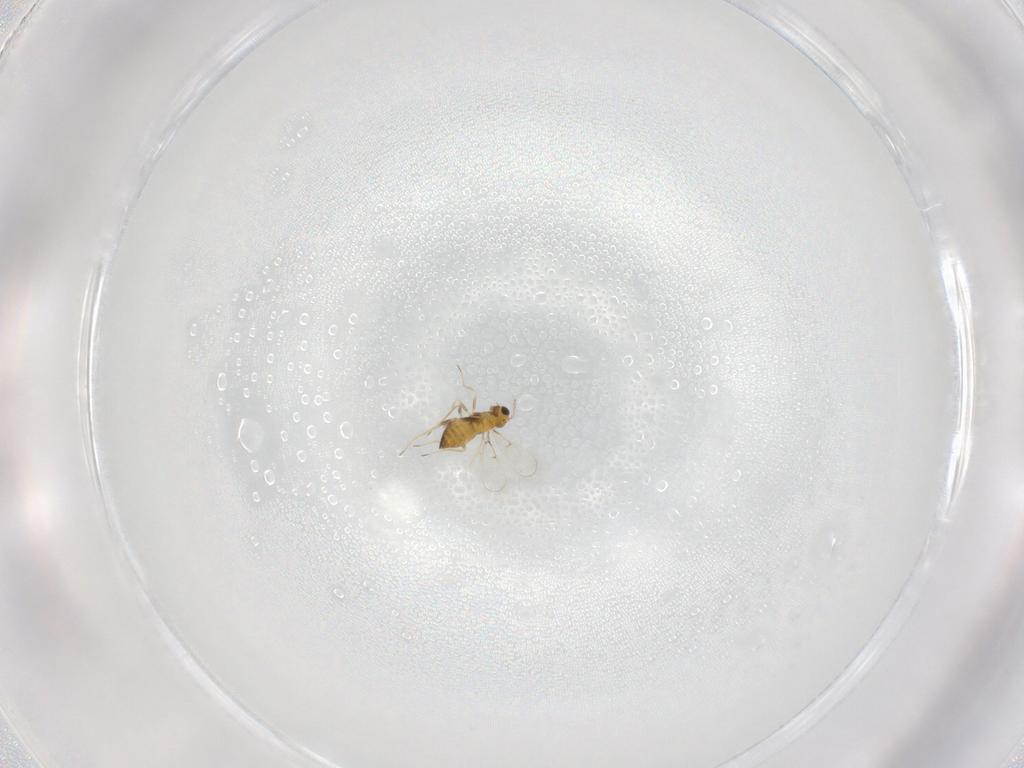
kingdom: Animalia
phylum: Arthropoda
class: Insecta
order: Hymenoptera
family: Trichogrammatidae
